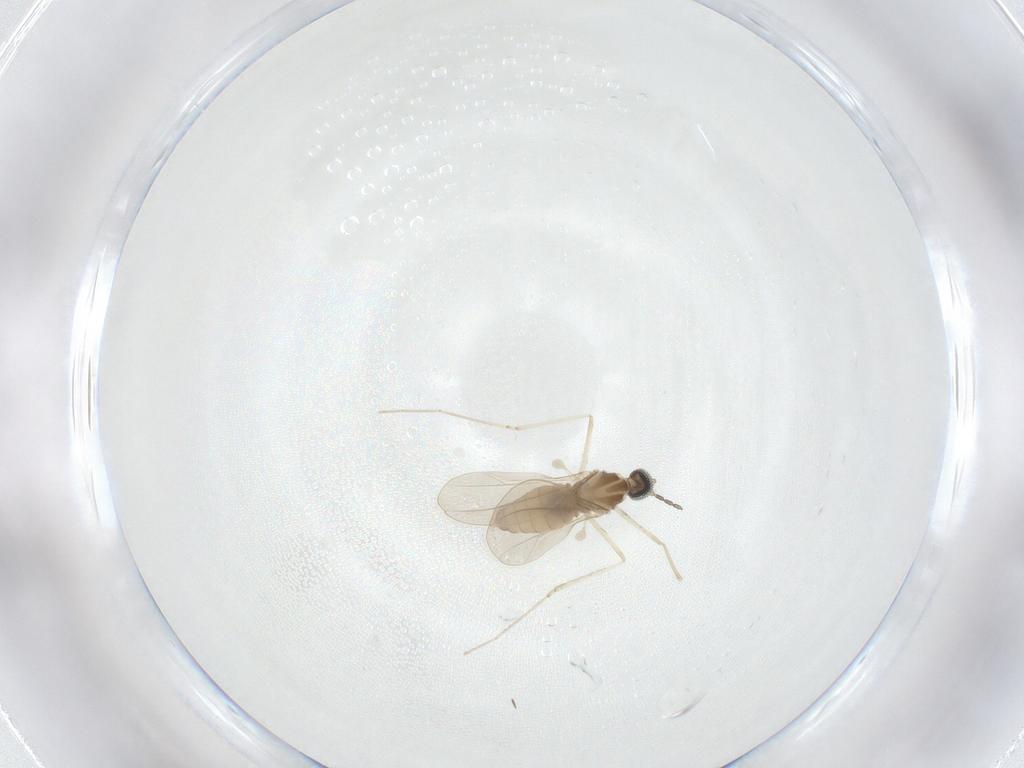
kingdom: Animalia
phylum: Arthropoda
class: Insecta
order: Diptera
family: Cecidomyiidae
